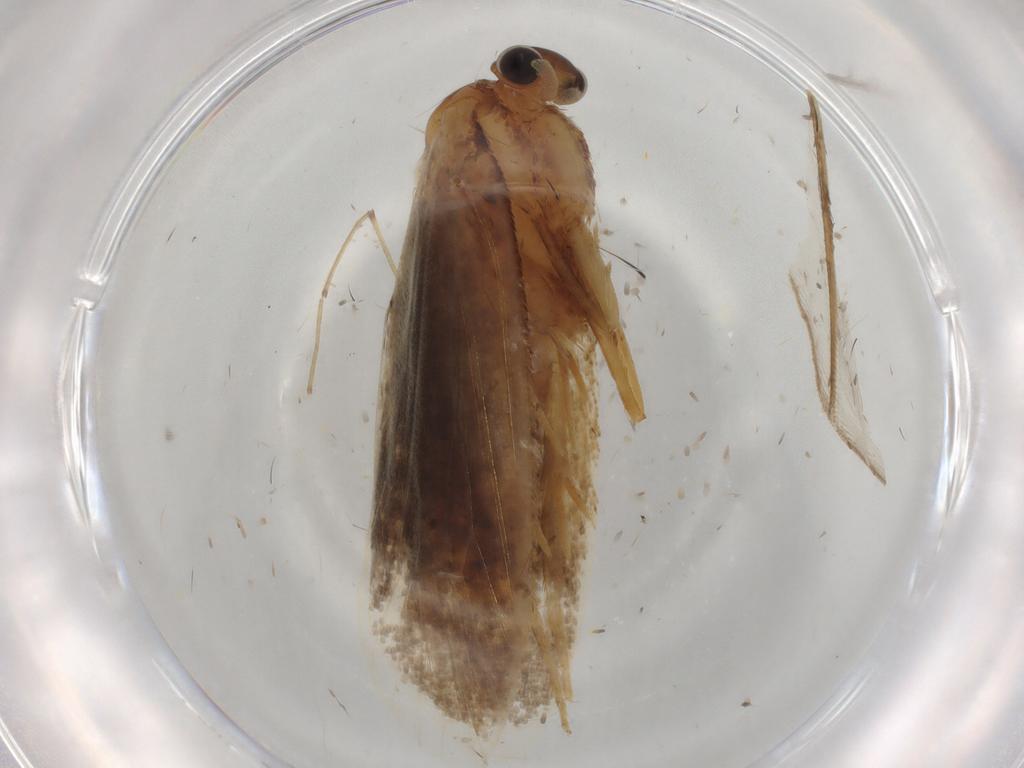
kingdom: Animalia
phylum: Arthropoda
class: Insecta
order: Lepidoptera
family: Nepticulidae
